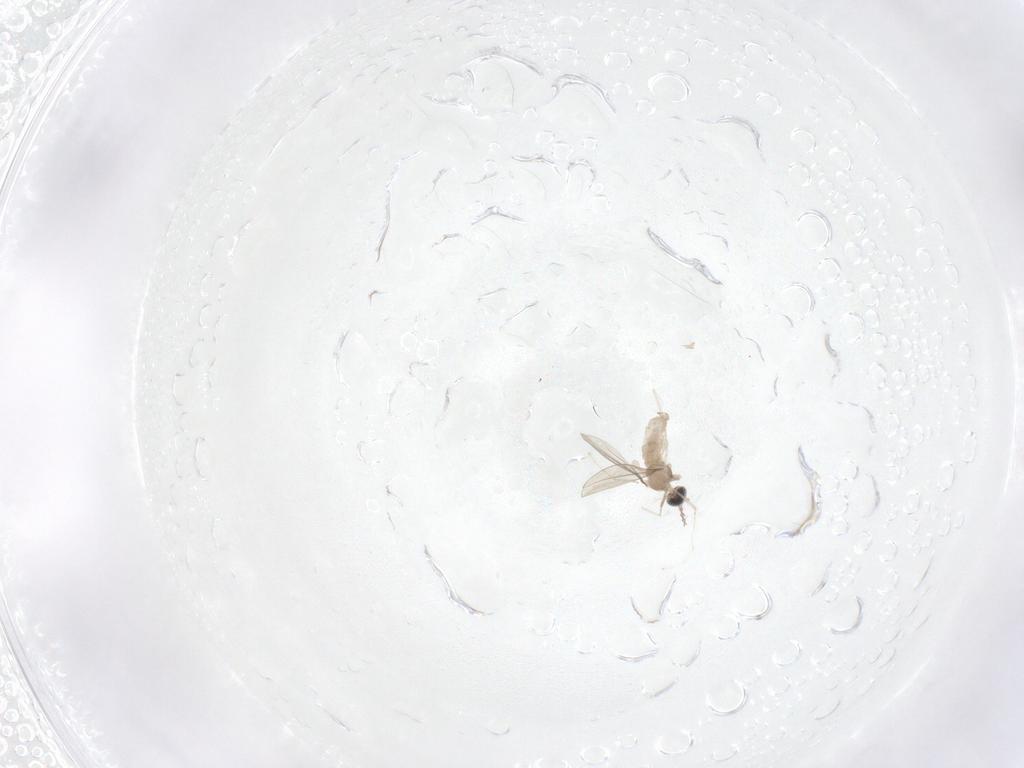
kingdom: Animalia
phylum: Arthropoda
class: Insecta
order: Diptera
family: Cecidomyiidae
